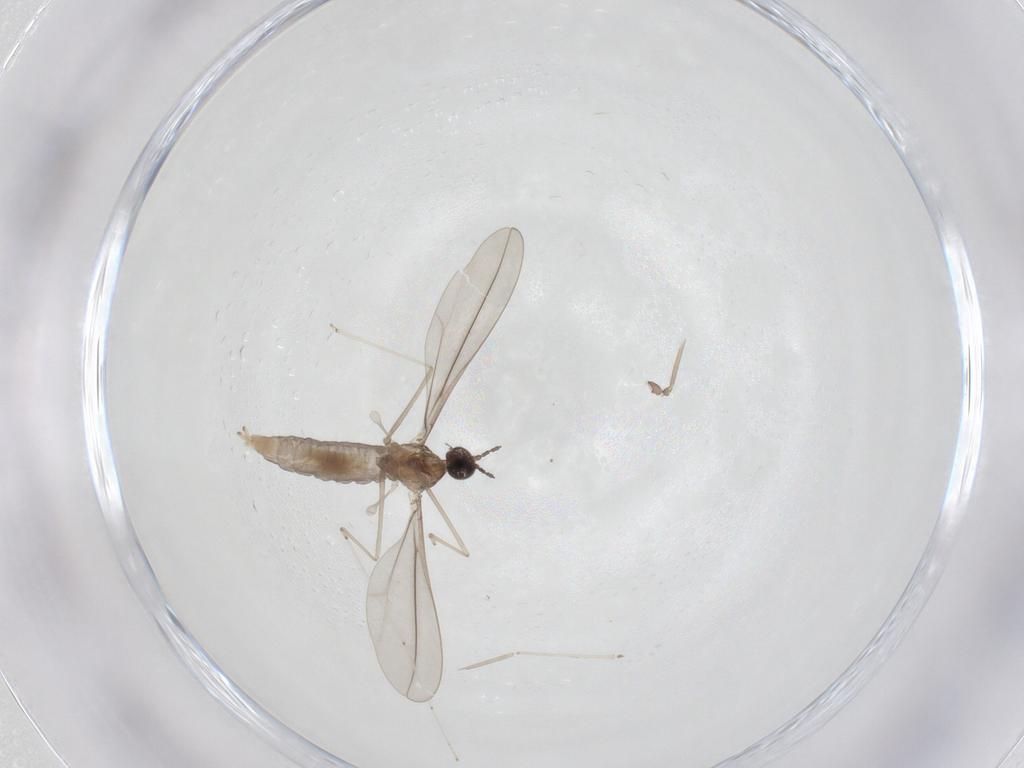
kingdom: Animalia
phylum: Arthropoda
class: Insecta
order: Diptera
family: Cecidomyiidae
